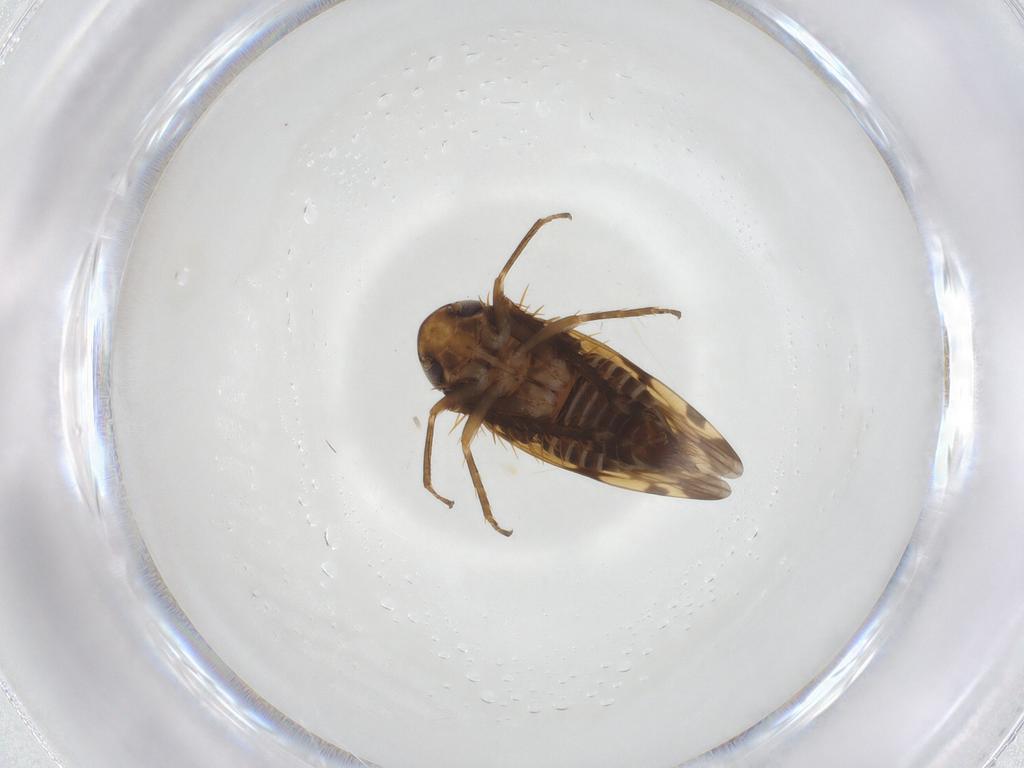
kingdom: Animalia
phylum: Arthropoda
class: Insecta
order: Hemiptera
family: Cicadellidae
